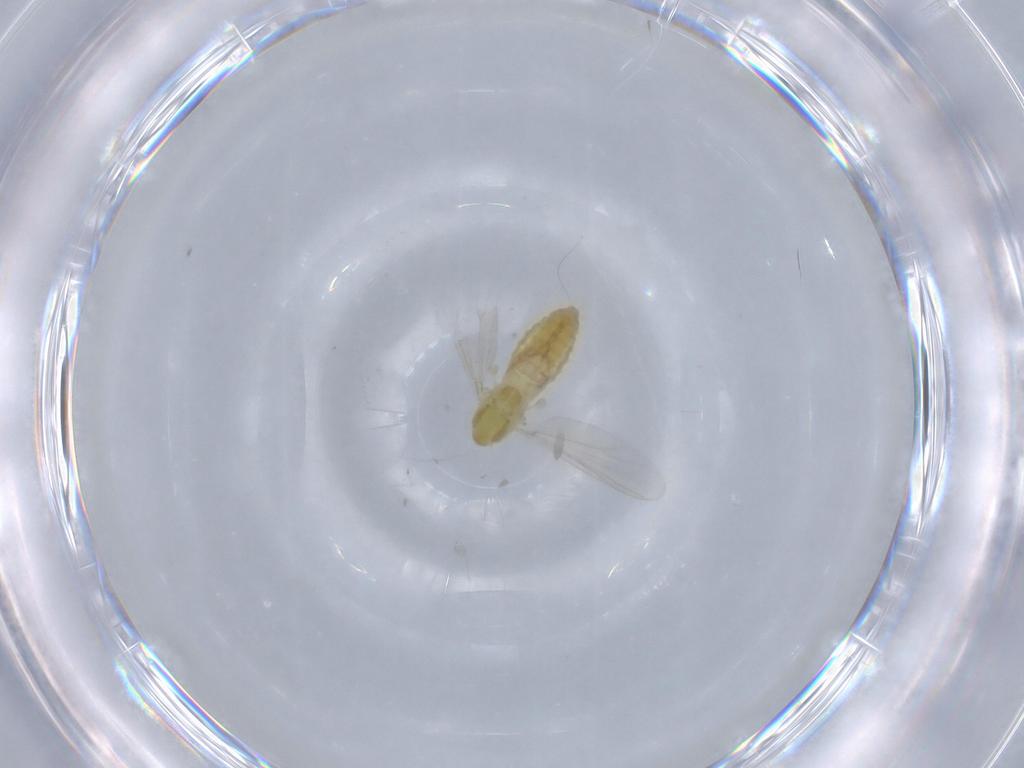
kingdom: Animalia
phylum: Arthropoda
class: Insecta
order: Diptera
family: Chironomidae
